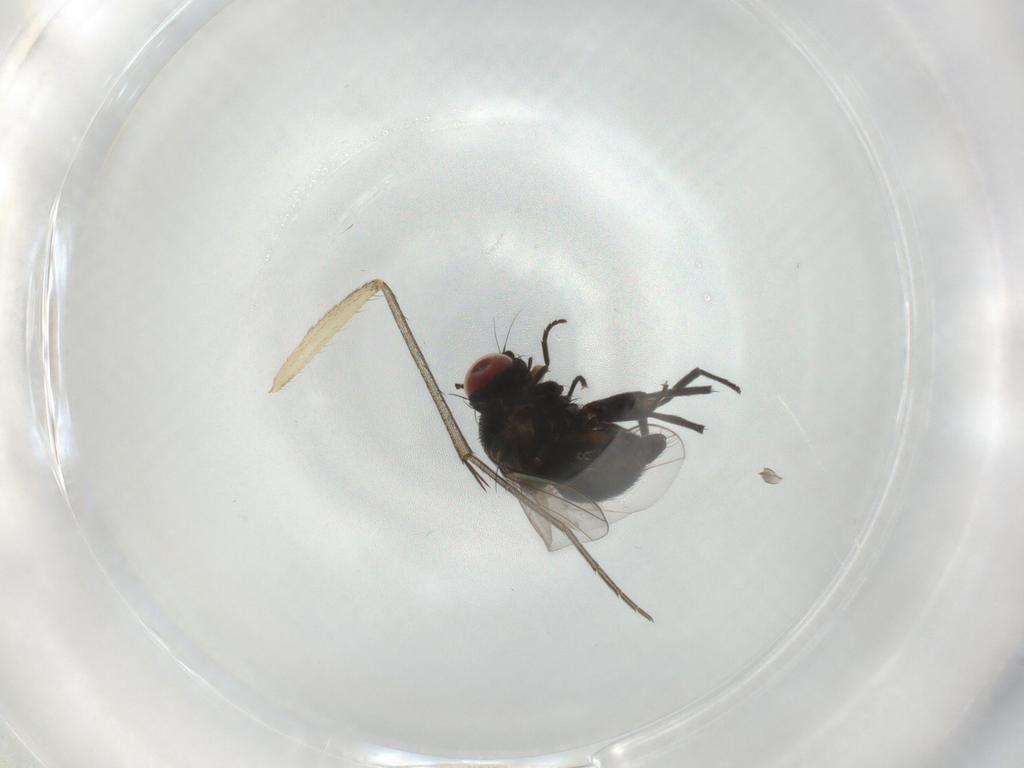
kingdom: Animalia
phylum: Arthropoda
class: Insecta
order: Diptera
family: Agromyzidae
